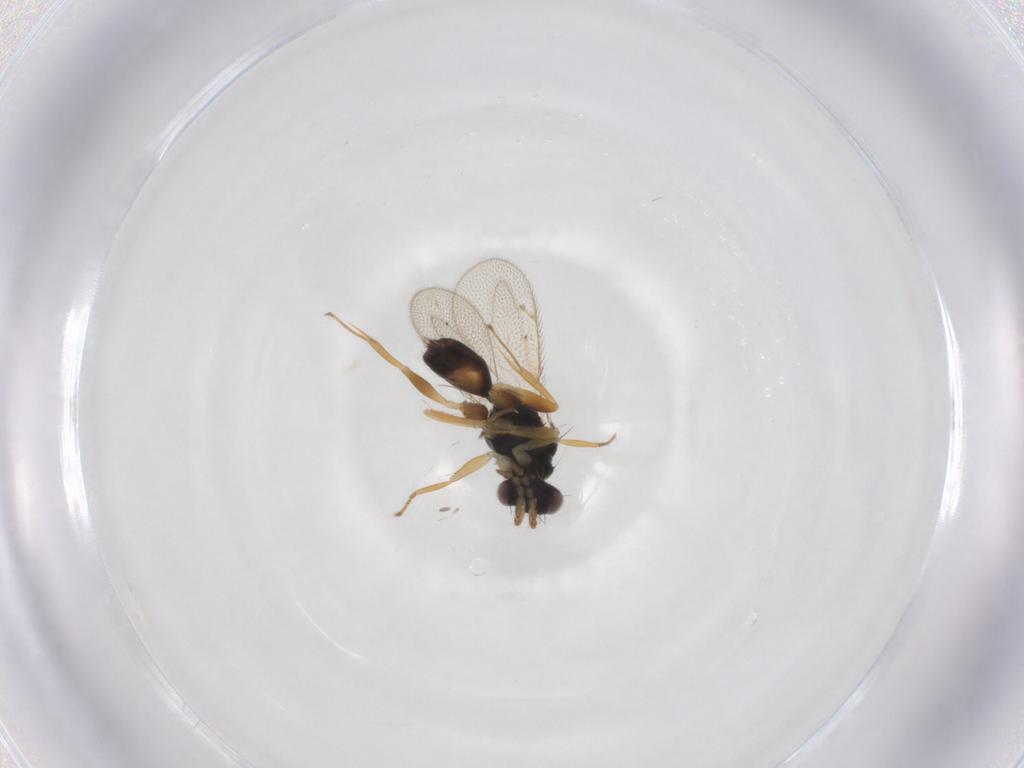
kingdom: Animalia
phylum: Arthropoda
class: Insecta
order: Hymenoptera
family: Eulophidae
